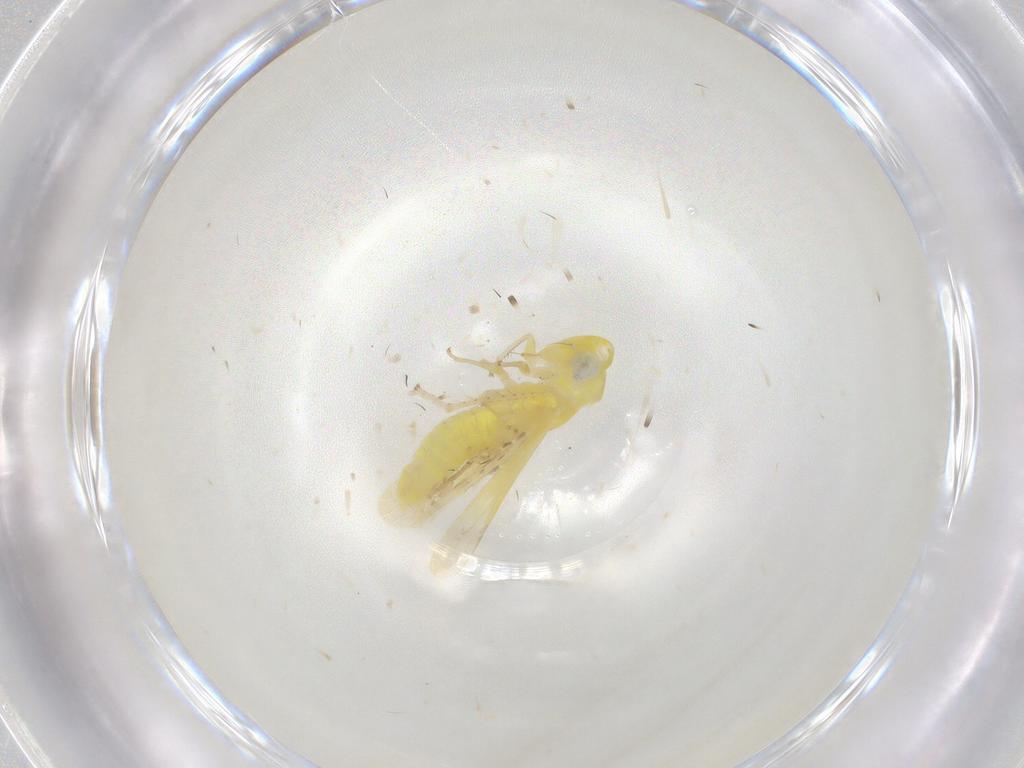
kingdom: Animalia
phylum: Arthropoda
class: Insecta
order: Hemiptera
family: Cicadellidae
